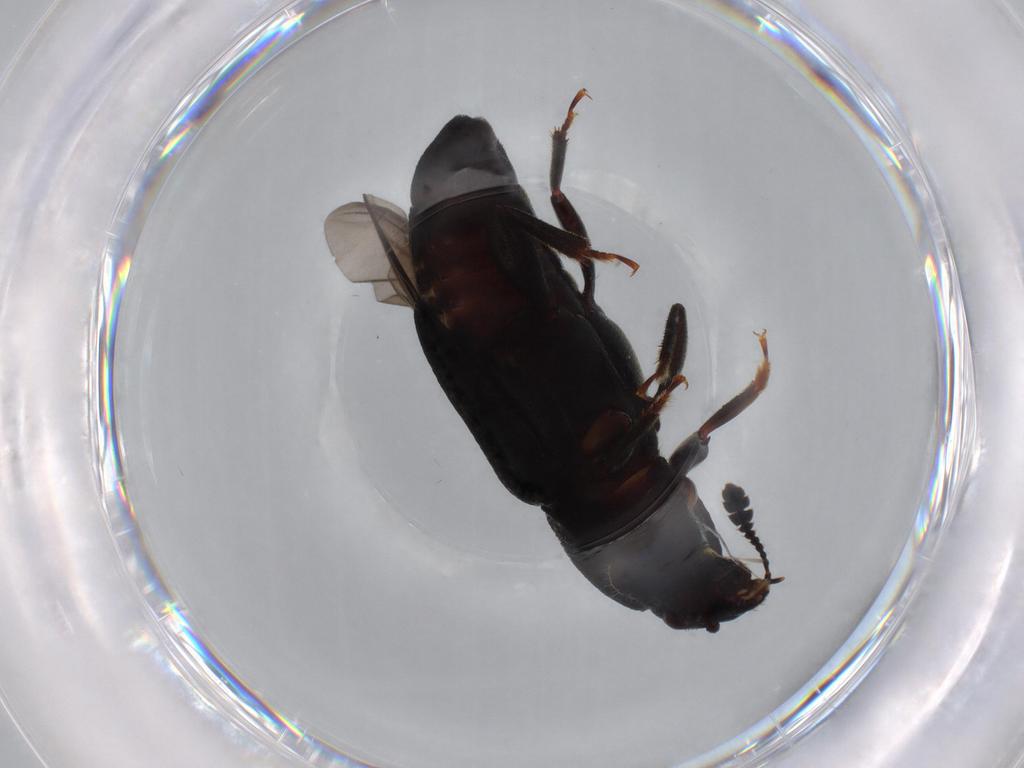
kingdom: Animalia
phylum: Arthropoda
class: Insecta
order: Coleoptera
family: Nitidulidae
